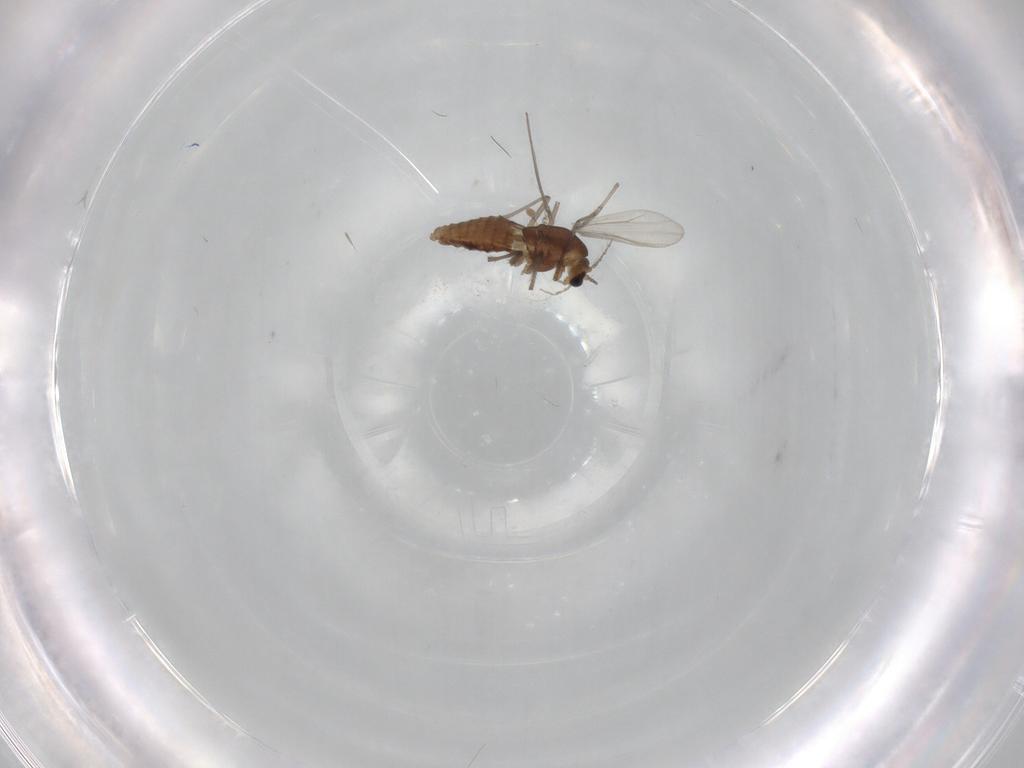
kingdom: Animalia
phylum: Arthropoda
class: Insecta
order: Diptera
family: Chironomidae
